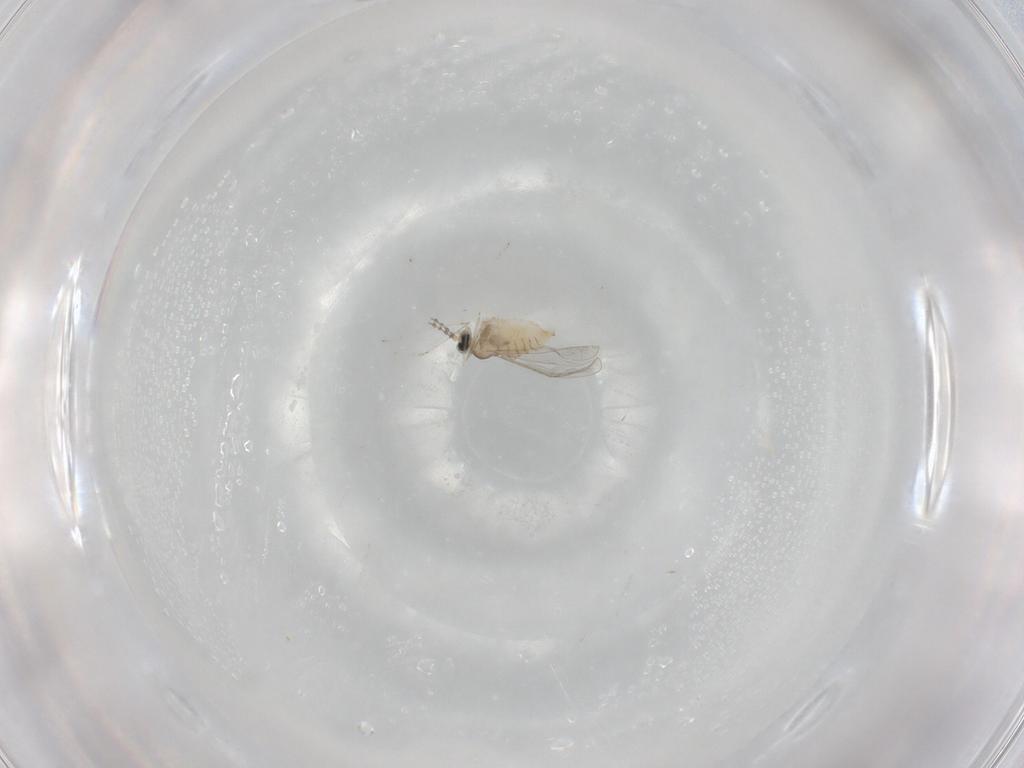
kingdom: Animalia
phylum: Arthropoda
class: Insecta
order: Diptera
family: Cecidomyiidae
